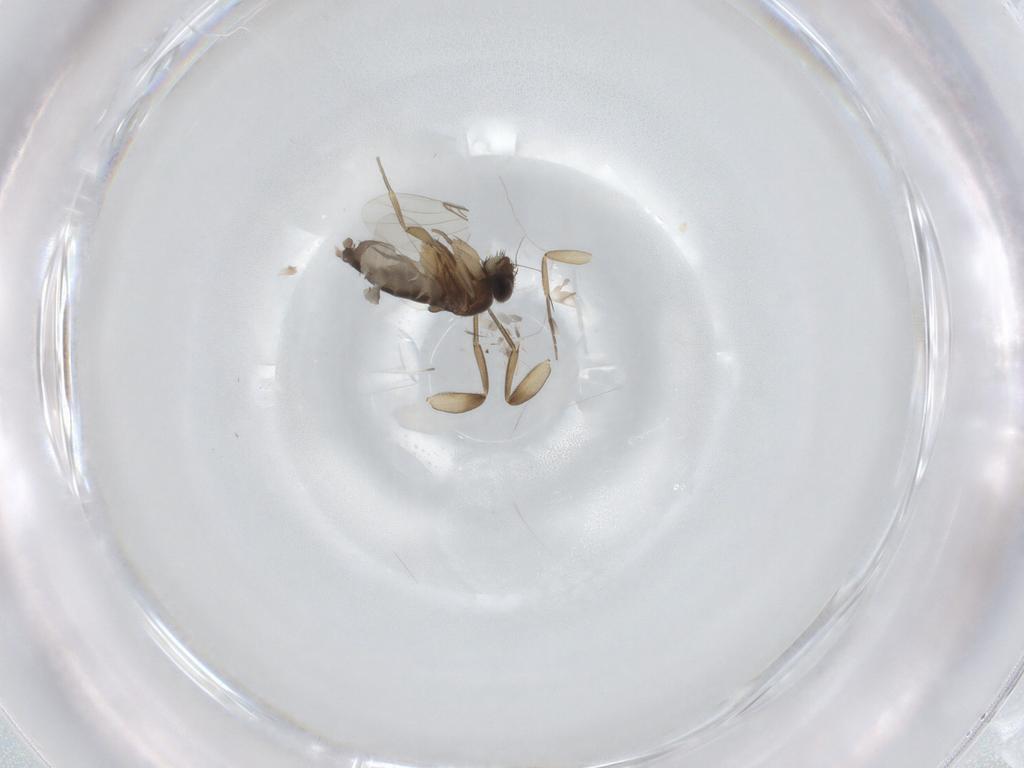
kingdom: Animalia
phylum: Arthropoda
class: Insecta
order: Diptera
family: Phoridae
